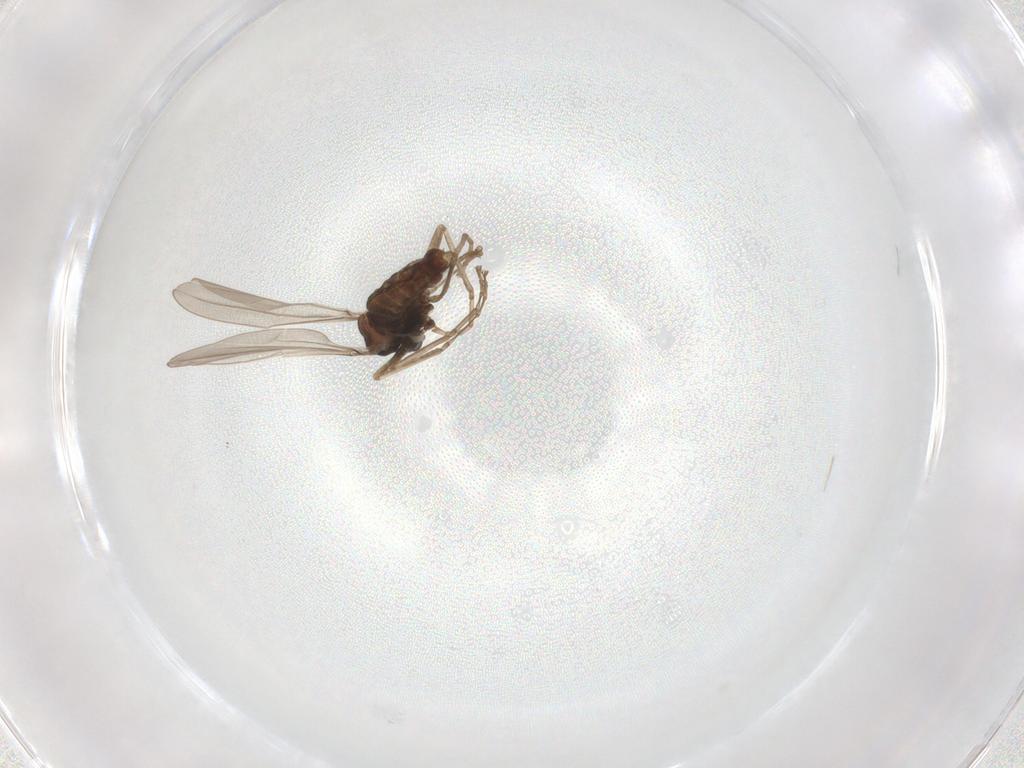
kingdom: Animalia
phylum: Arthropoda
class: Insecta
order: Diptera
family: Cecidomyiidae
